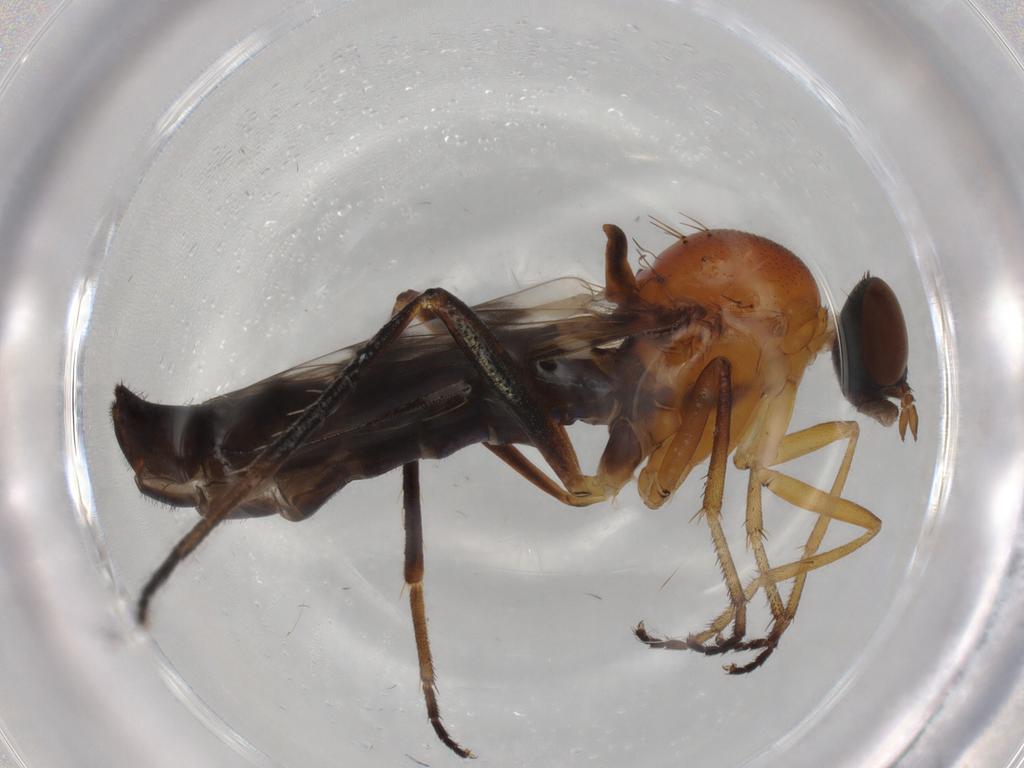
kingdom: Animalia
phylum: Arthropoda
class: Insecta
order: Diptera
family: Therevidae
